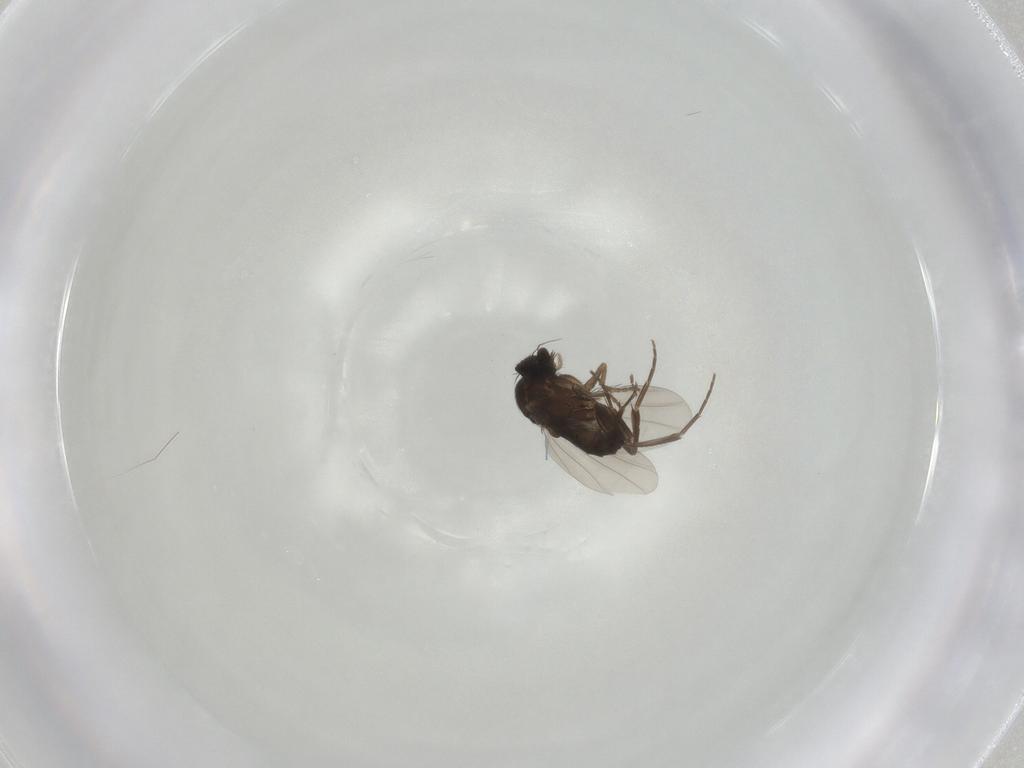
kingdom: Animalia
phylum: Arthropoda
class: Insecta
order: Diptera
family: Phoridae
